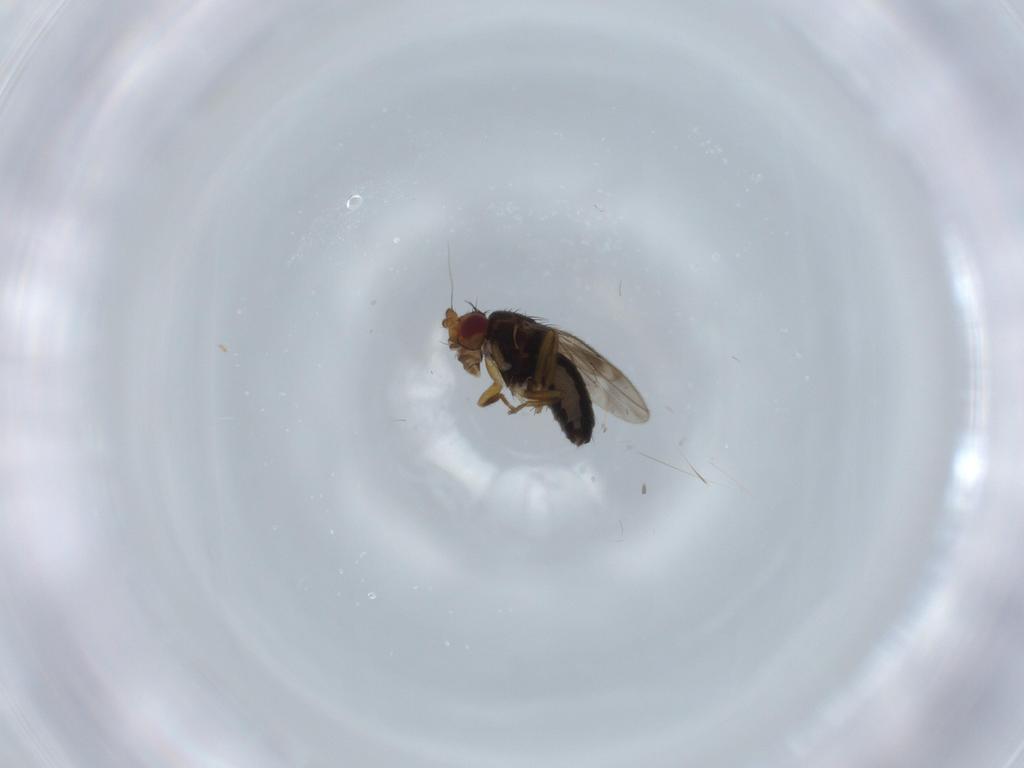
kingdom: Animalia
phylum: Arthropoda
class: Insecta
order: Diptera
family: Sphaeroceridae
